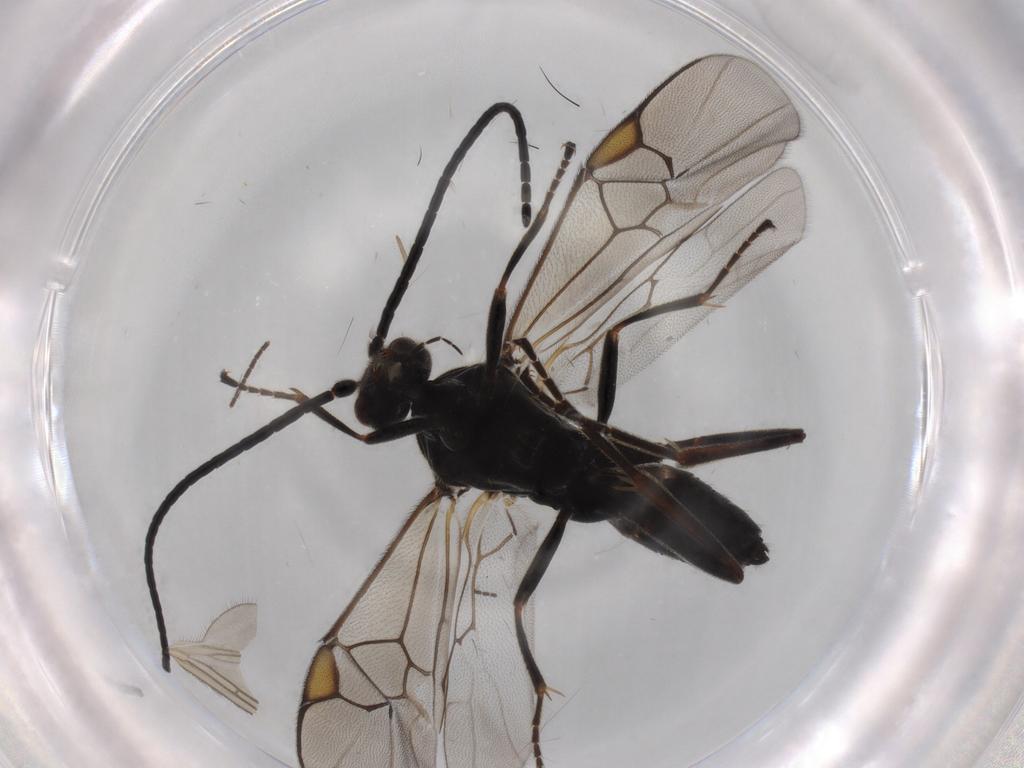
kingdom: Animalia
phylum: Arthropoda
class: Insecta
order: Hymenoptera
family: Braconidae
